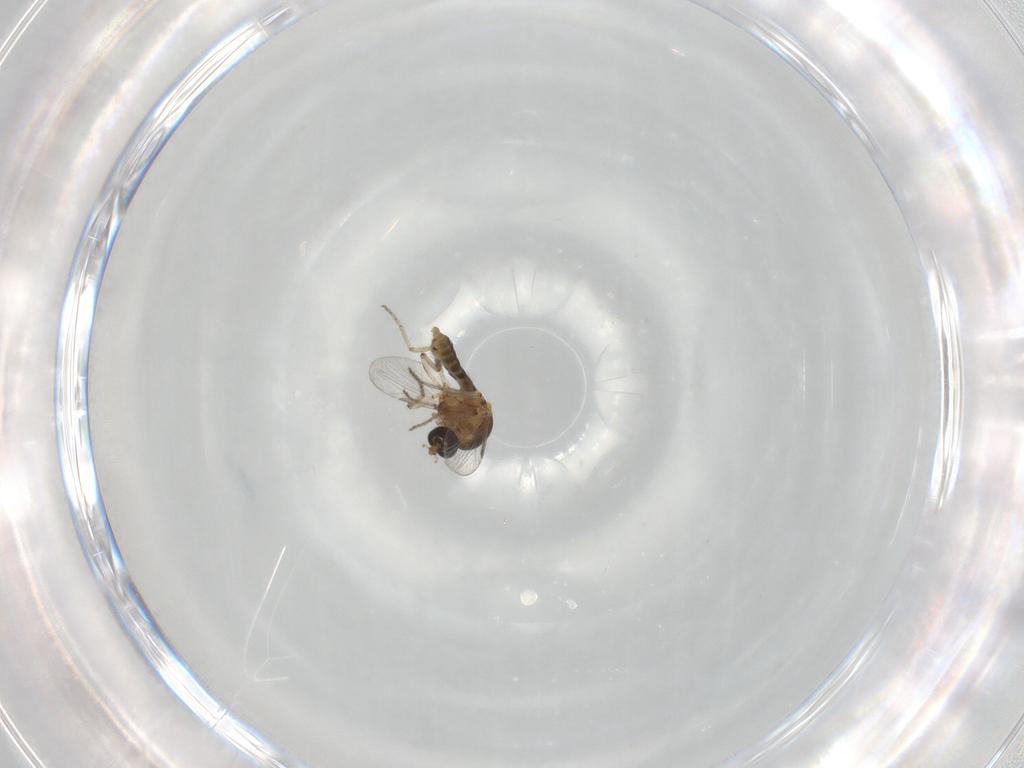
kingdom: Animalia
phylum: Arthropoda
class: Insecta
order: Diptera
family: Ceratopogonidae
